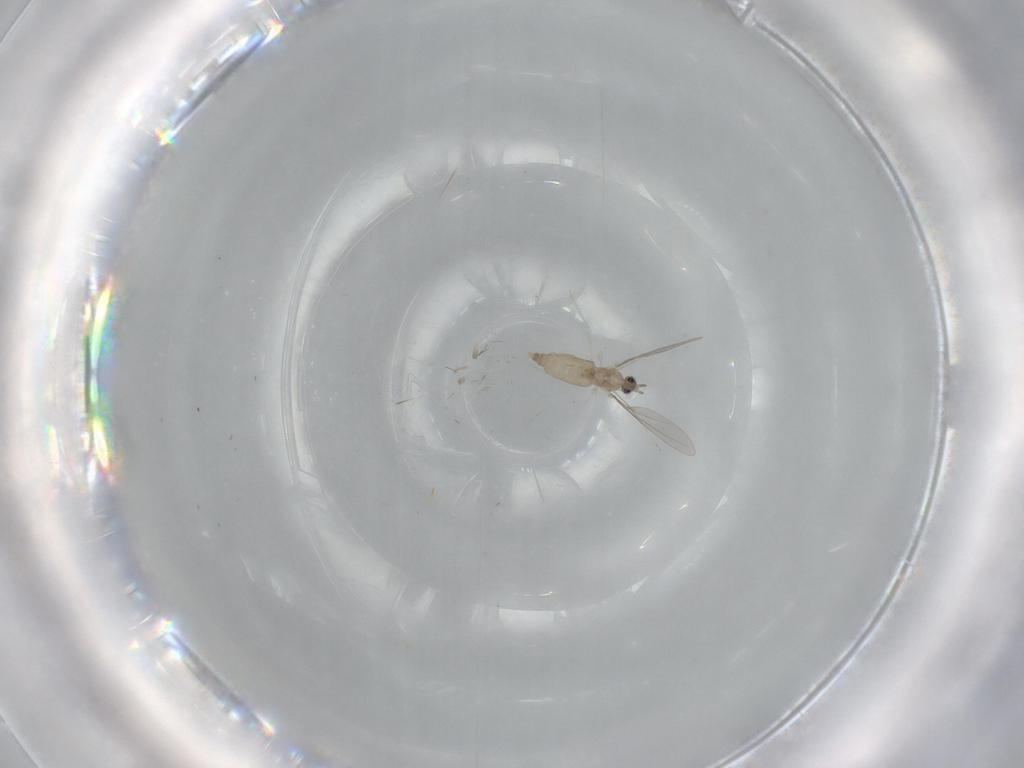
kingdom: Animalia
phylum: Arthropoda
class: Insecta
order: Diptera
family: Cecidomyiidae
